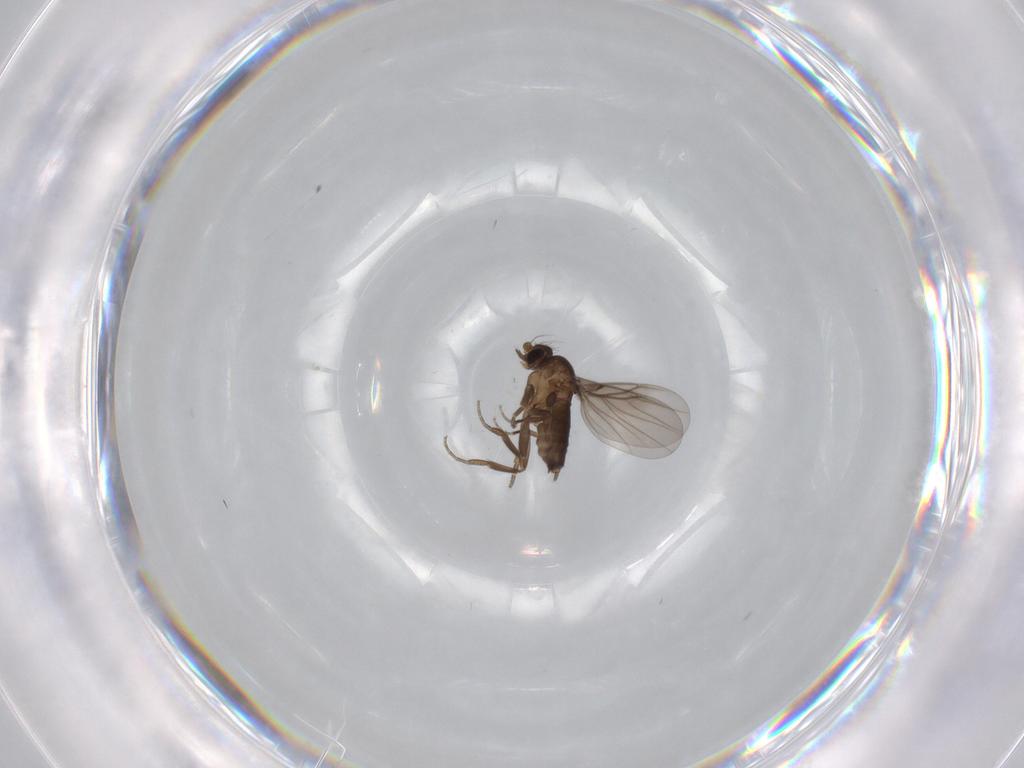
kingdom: Animalia
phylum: Arthropoda
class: Insecta
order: Diptera
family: Phoridae
